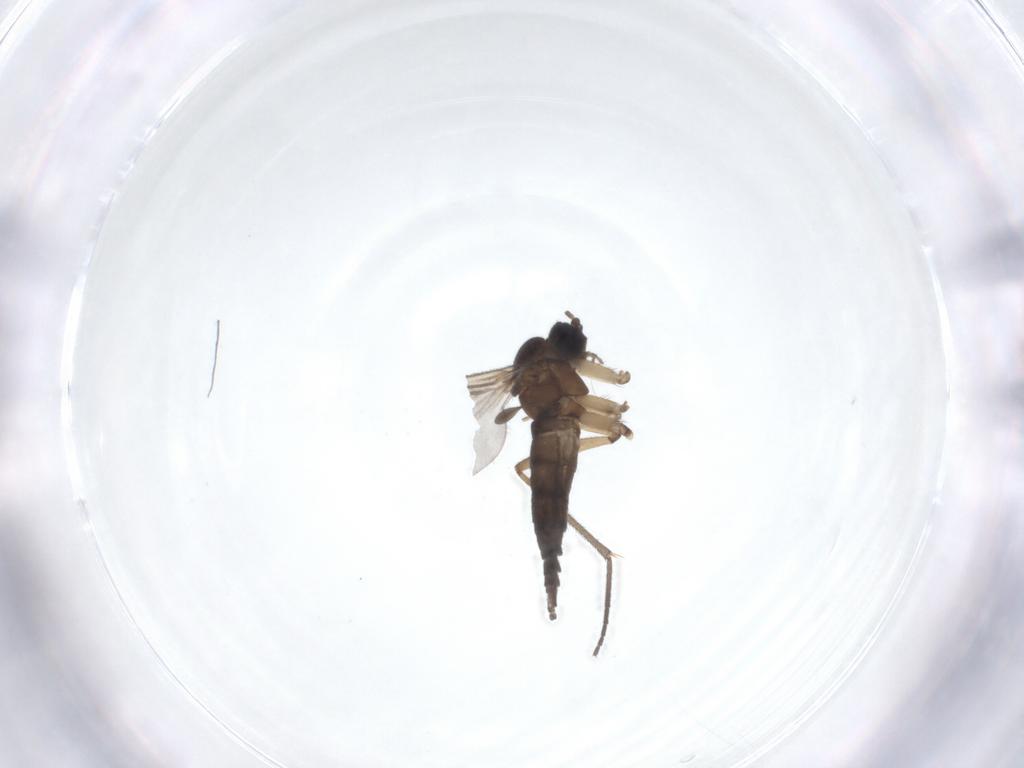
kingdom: Animalia
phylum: Arthropoda
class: Insecta
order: Diptera
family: Sciaridae
